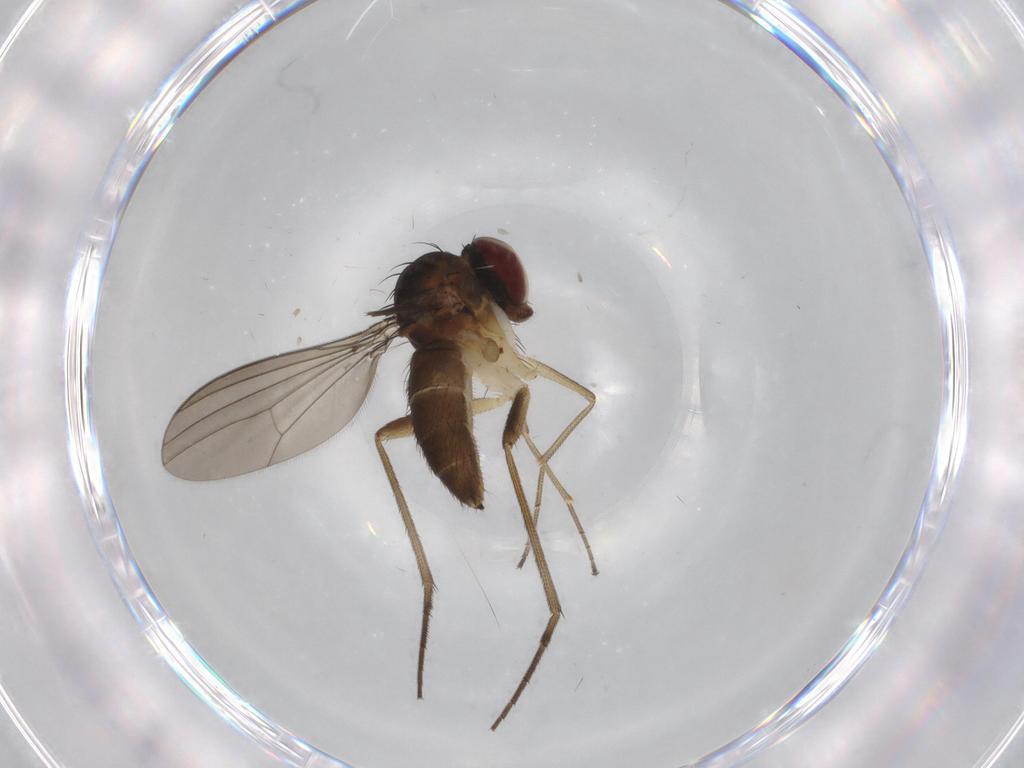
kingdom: Animalia
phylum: Arthropoda
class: Insecta
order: Diptera
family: Dolichopodidae
